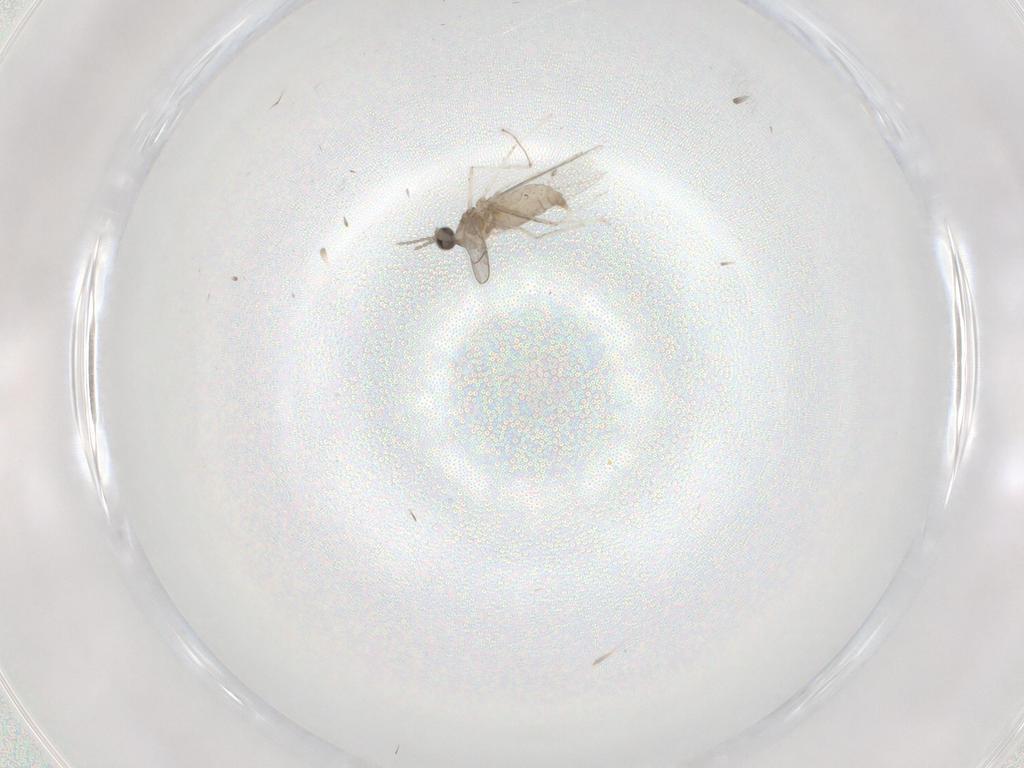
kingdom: Animalia
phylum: Arthropoda
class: Insecta
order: Diptera
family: Cecidomyiidae
